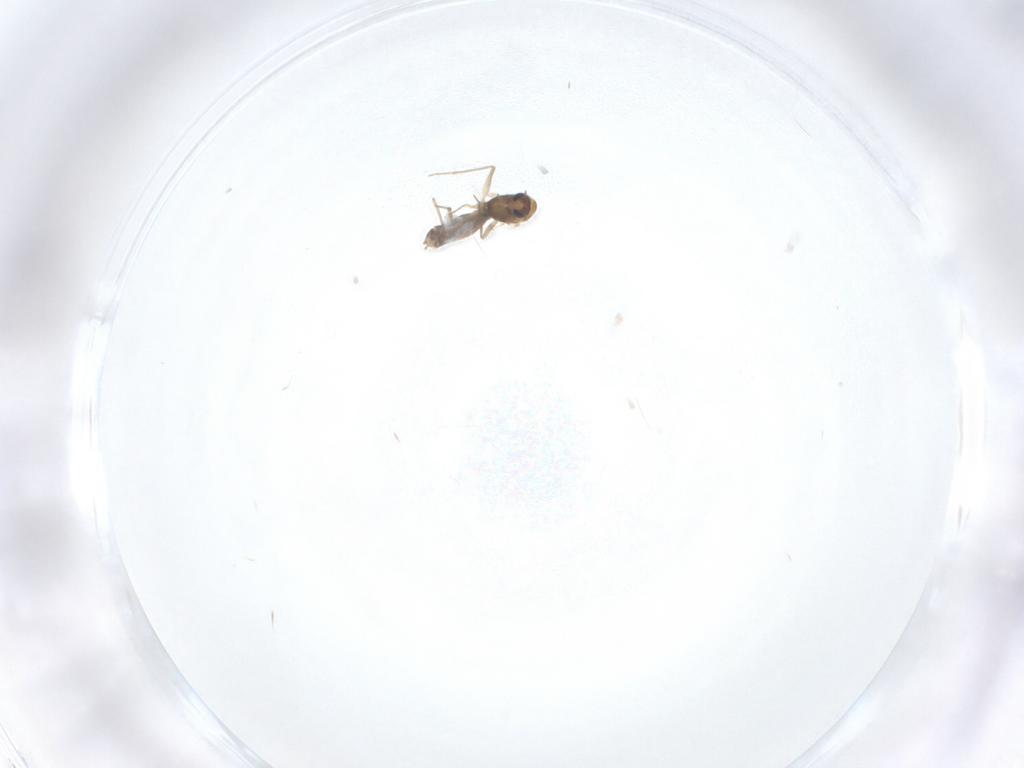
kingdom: Animalia
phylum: Arthropoda
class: Insecta
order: Diptera
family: Chironomidae
